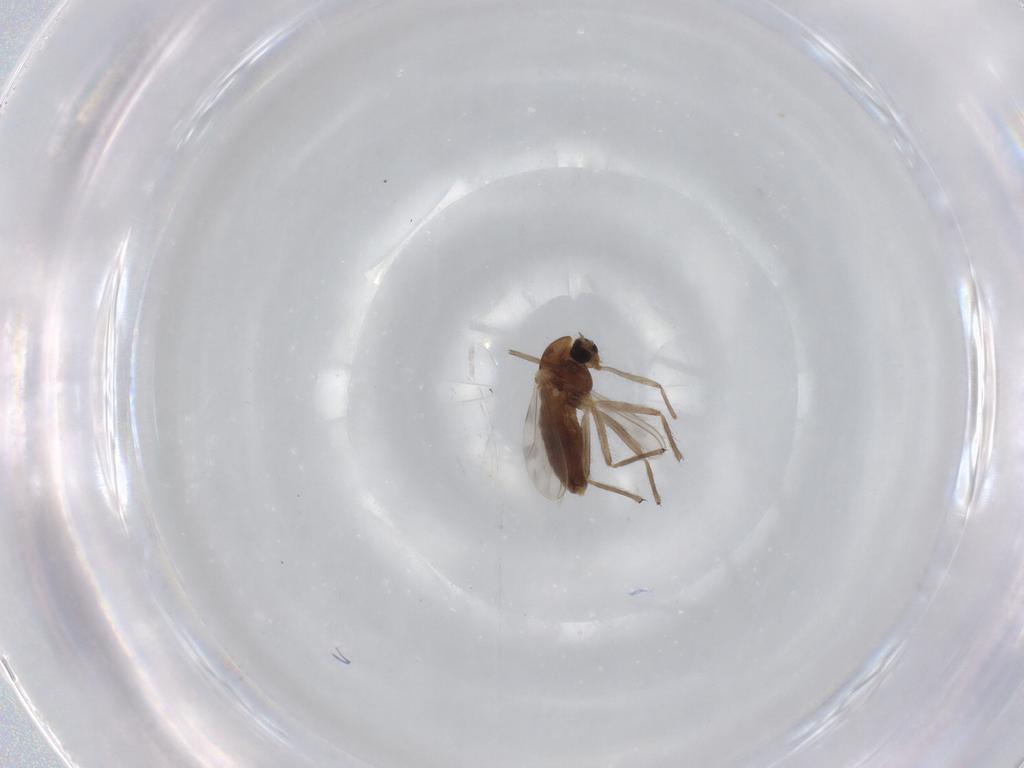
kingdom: Animalia
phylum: Arthropoda
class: Insecta
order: Diptera
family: Chironomidae
